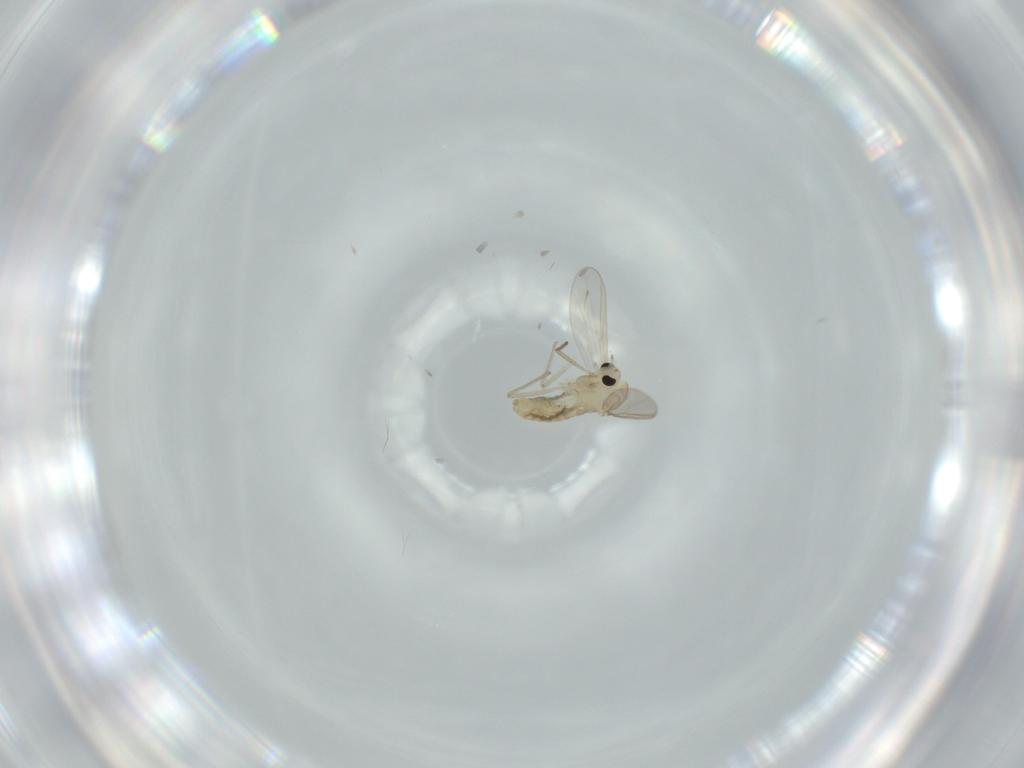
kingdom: Animalia
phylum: Arthropoda
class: Insecta
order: Diptera
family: Chironomidae
